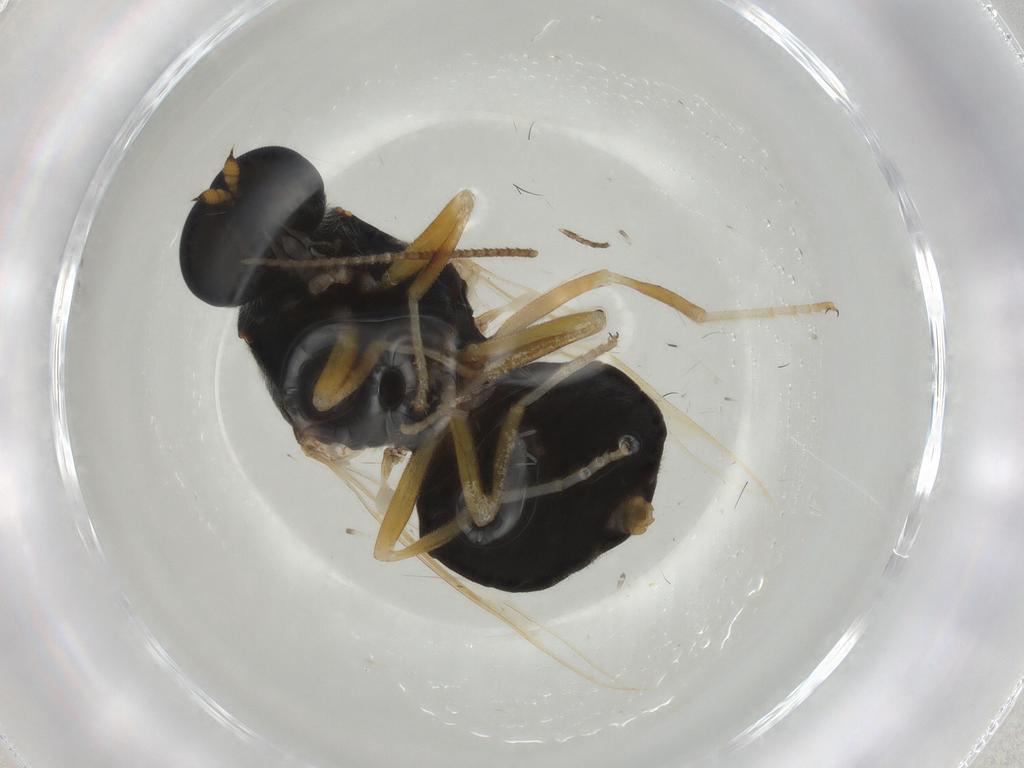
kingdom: Animalia
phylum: Arthropoda
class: Insecta
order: Diptera
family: Stratiomyidae
